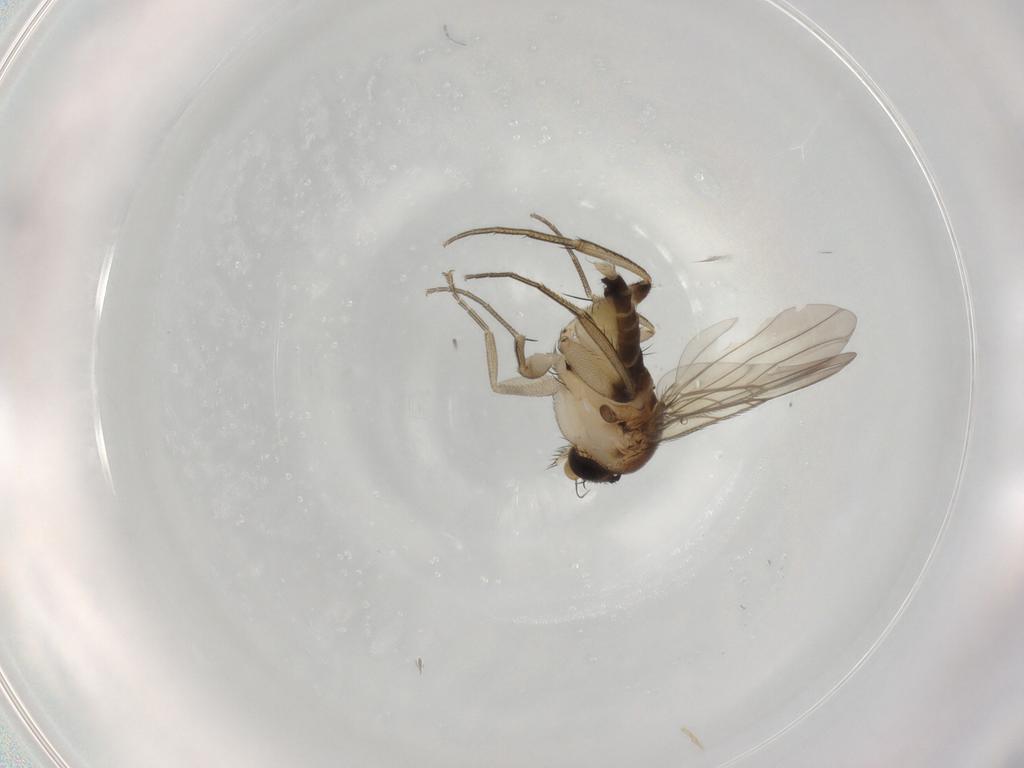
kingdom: Animalia
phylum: Arthropoda
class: Insecta
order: Diptera
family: Phoridae
